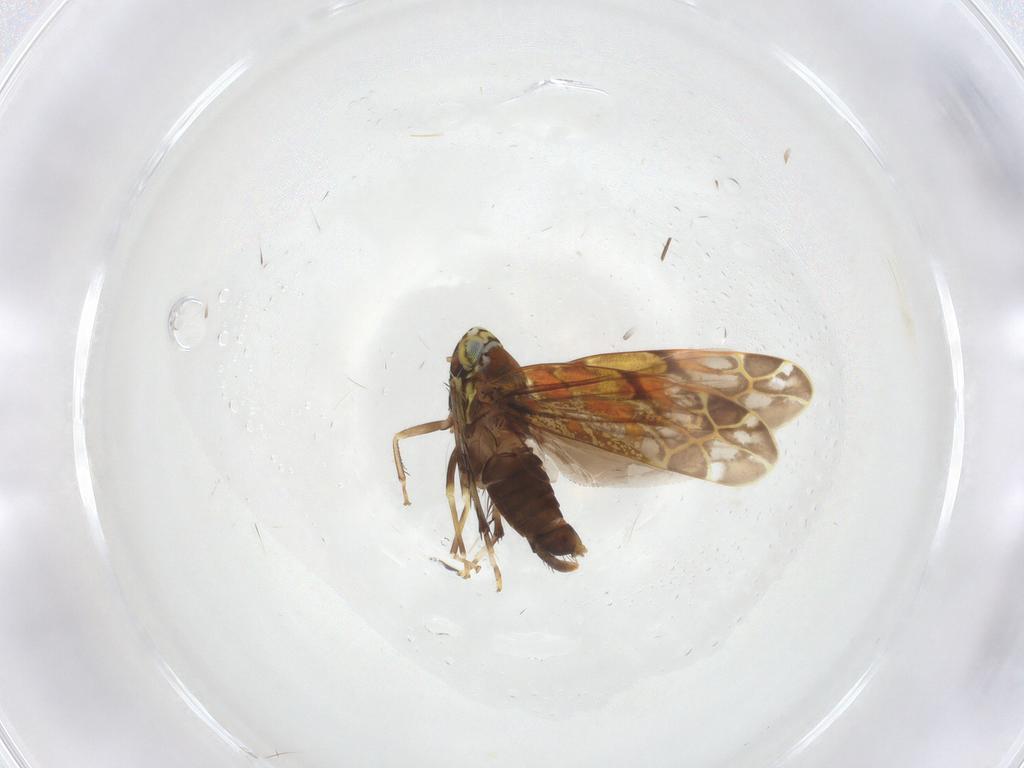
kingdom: Animalia
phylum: Arthropoda
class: Insecta
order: Hemiptera
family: Cicadellidae
